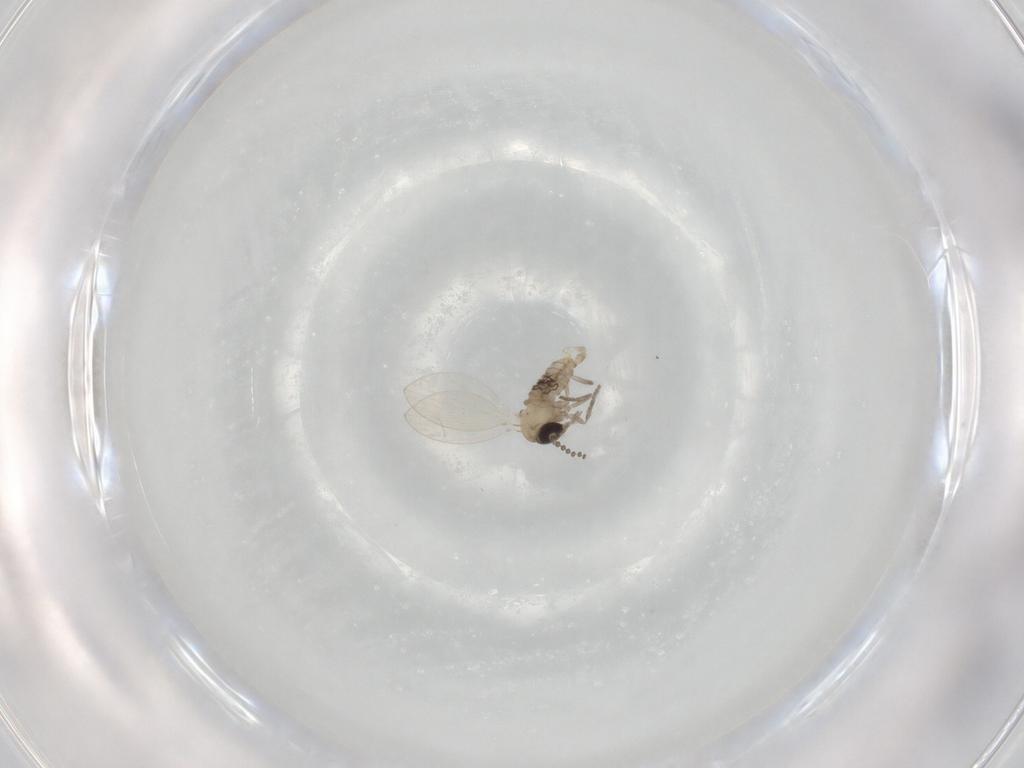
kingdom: Animalia
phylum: Arthropoda
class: Insecta
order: Diptera
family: Psychodidae
